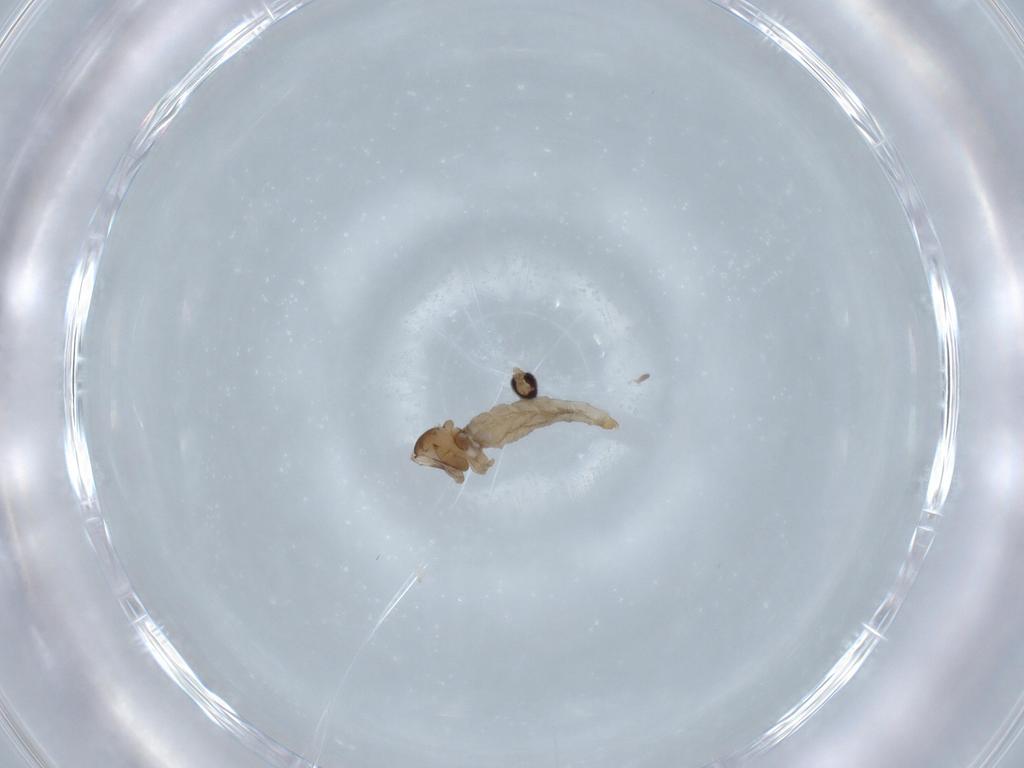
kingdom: Animalia
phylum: Arthropoda
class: Insecta
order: Diptera
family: Cecidomyiidae
